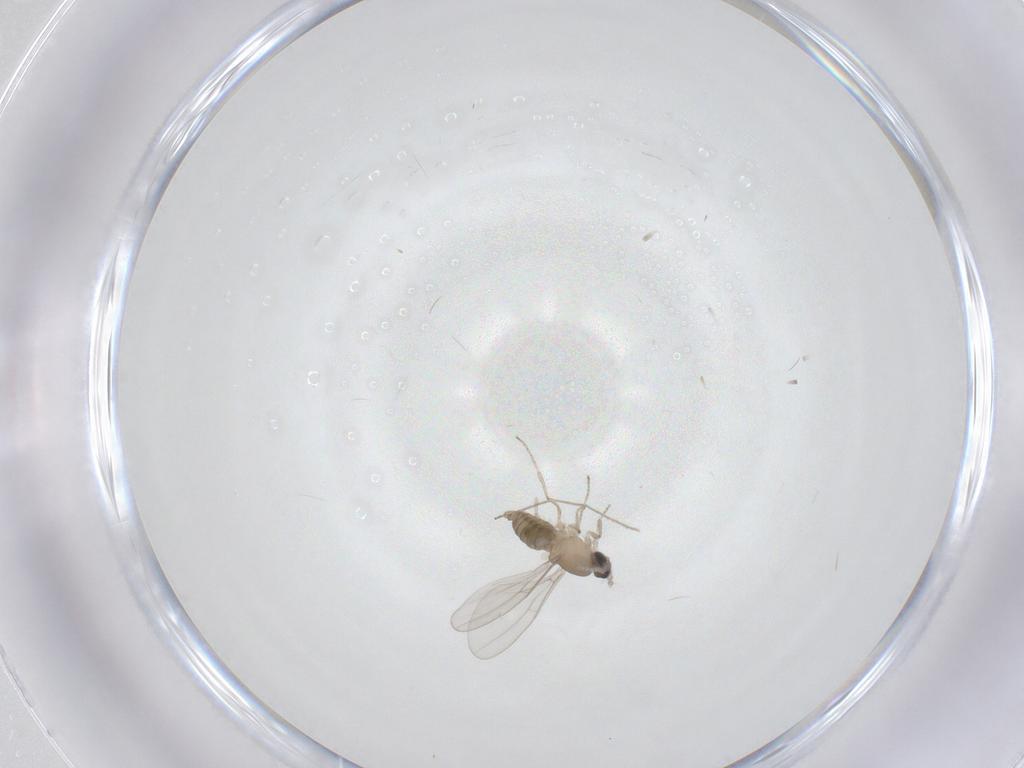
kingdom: Animalia
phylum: Arthropoda
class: Insecta
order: Diptera
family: Cecidomyiidae
